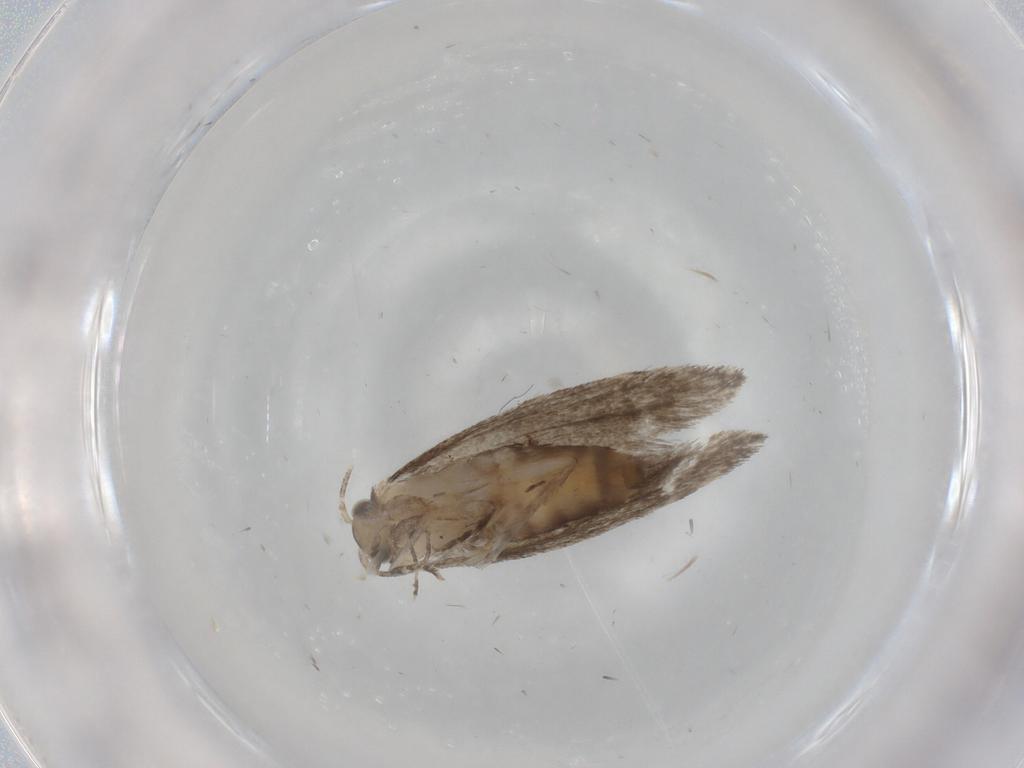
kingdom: Animalia
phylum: Arthropoda
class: Insecta
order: Lepidoptera
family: Tineidae
